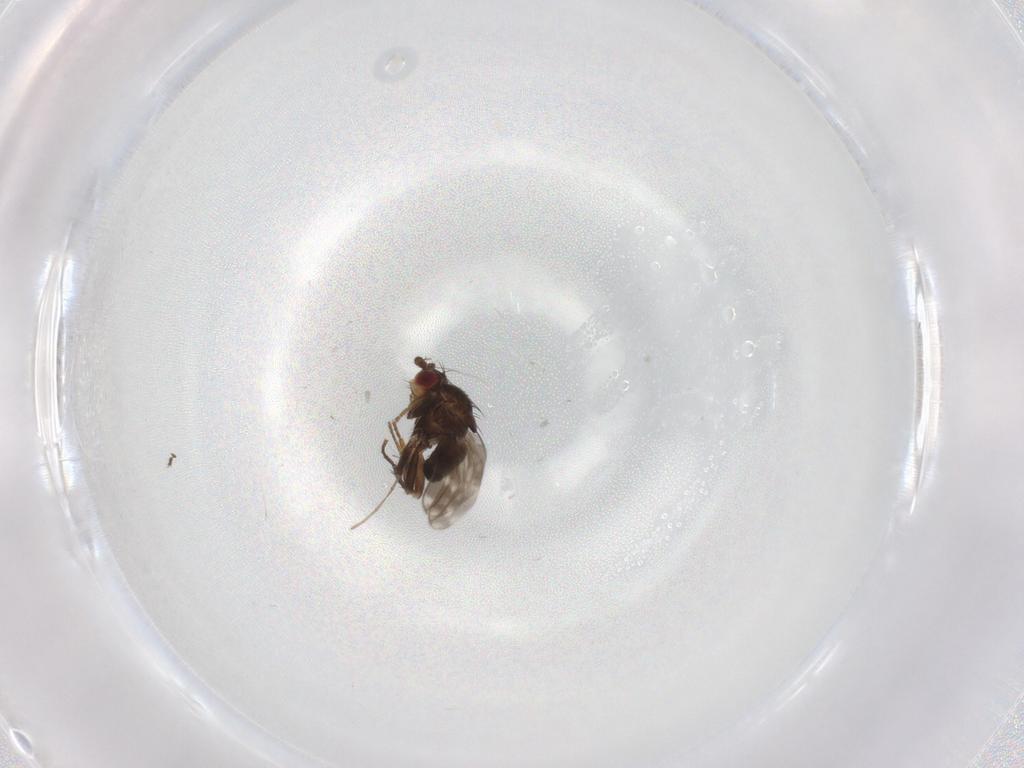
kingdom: Animalia
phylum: Arthropoda
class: Insecta
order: Diptera
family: Sphaeroceridae
